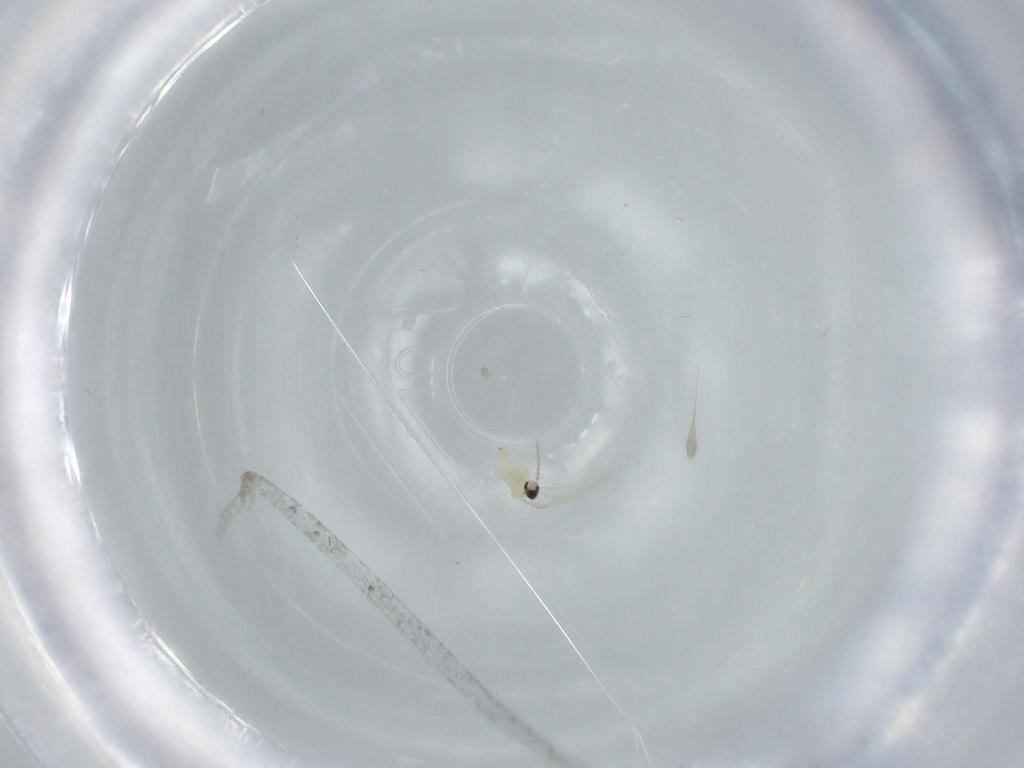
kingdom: Animalia
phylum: Arthropoda
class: Insecta
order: Diptera
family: Cecidomyiidae
